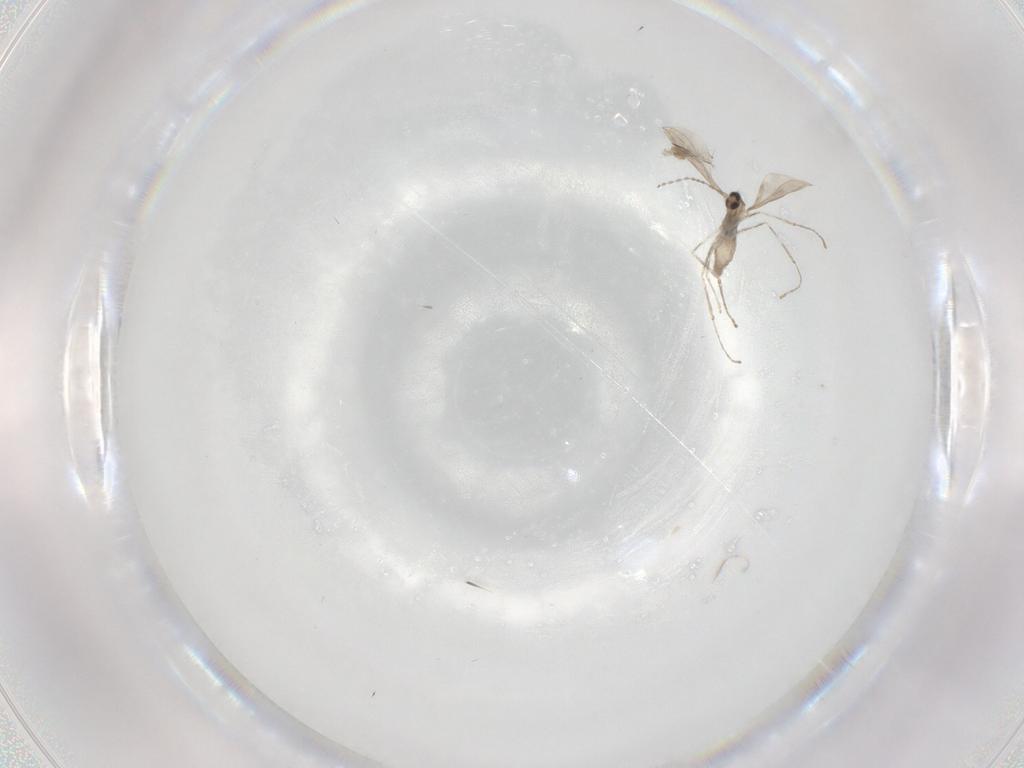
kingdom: Animalia
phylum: Arthropoda
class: Insecta
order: Diptera
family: Cecidomyiidae
